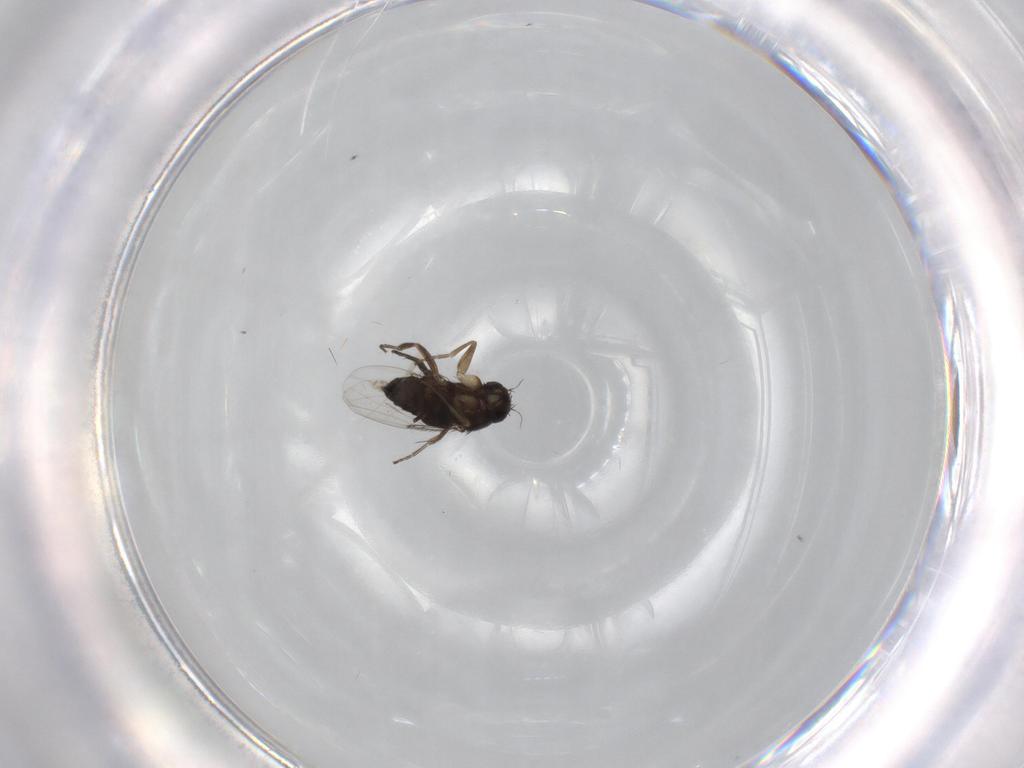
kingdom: Animalia
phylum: Arthropoda
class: Insecta
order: Diptera
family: Phoridae
